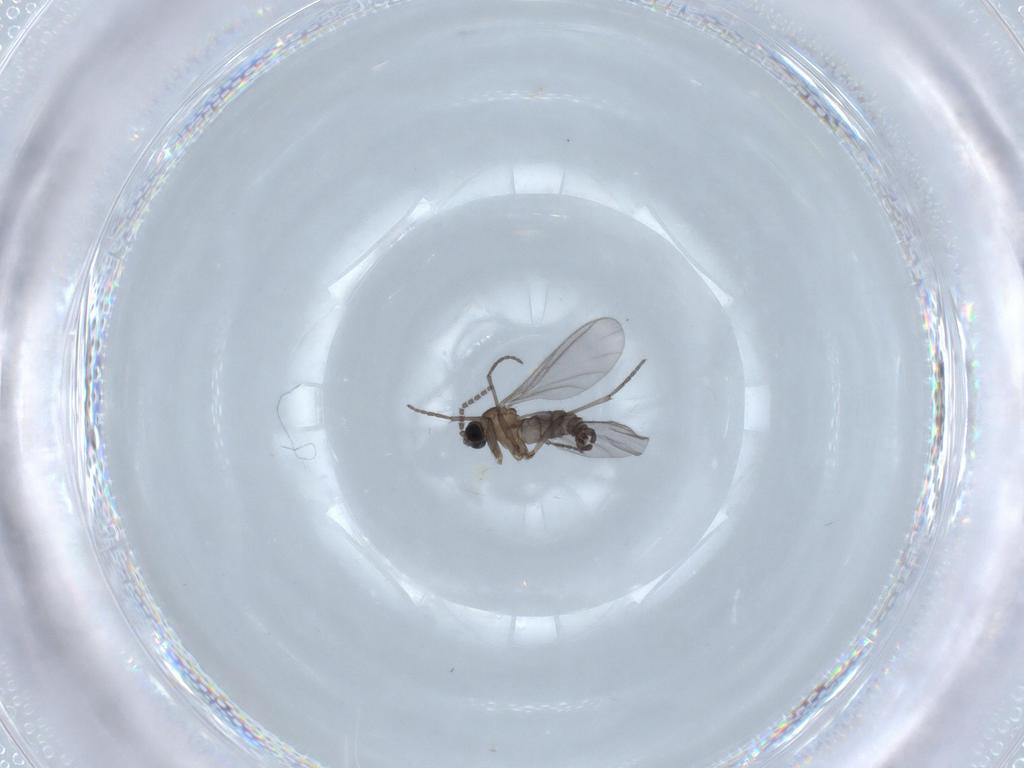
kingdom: Animalia
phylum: Arthropoda
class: Insecta
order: Diptera
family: Sciaridae
